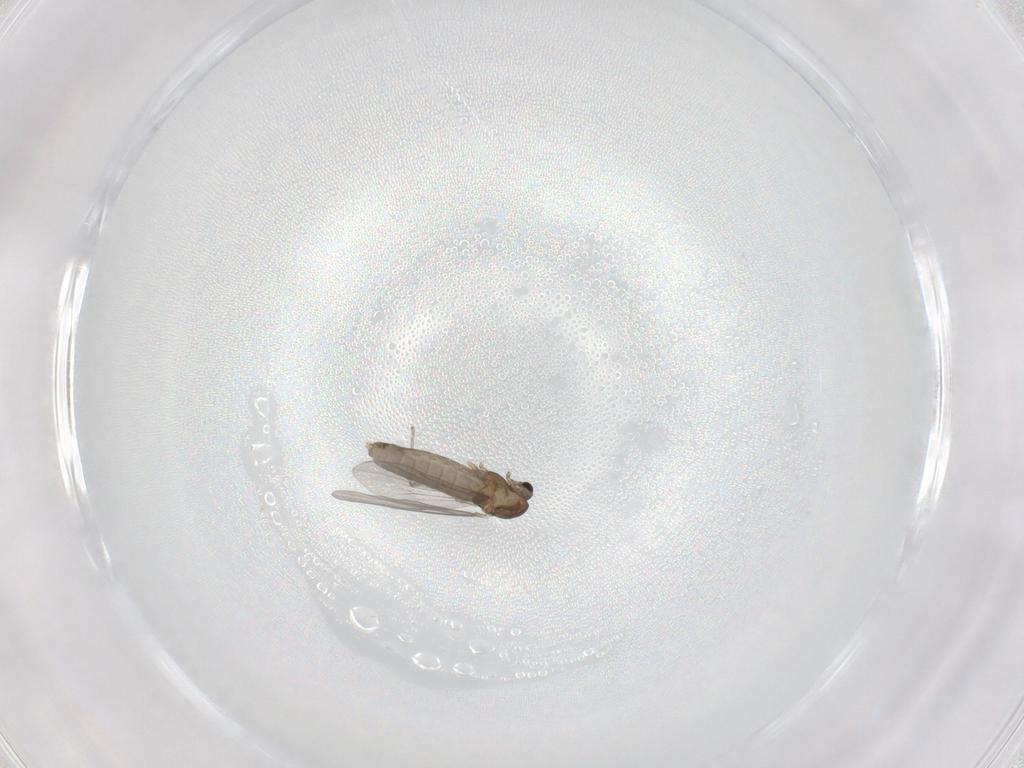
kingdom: Animalia
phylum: Arthropoda
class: Insecta
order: Diptera
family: Chironomidae
